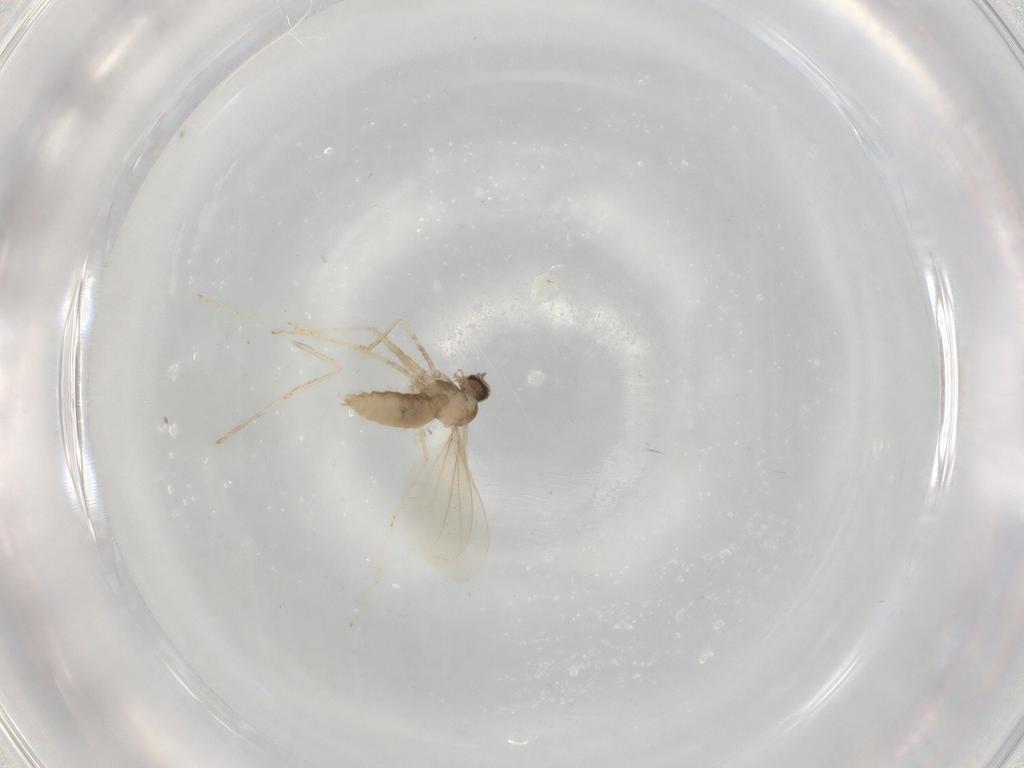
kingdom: Animalia
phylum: Arthropoda
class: Insecta
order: Diptera
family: Cecidomyiidae
